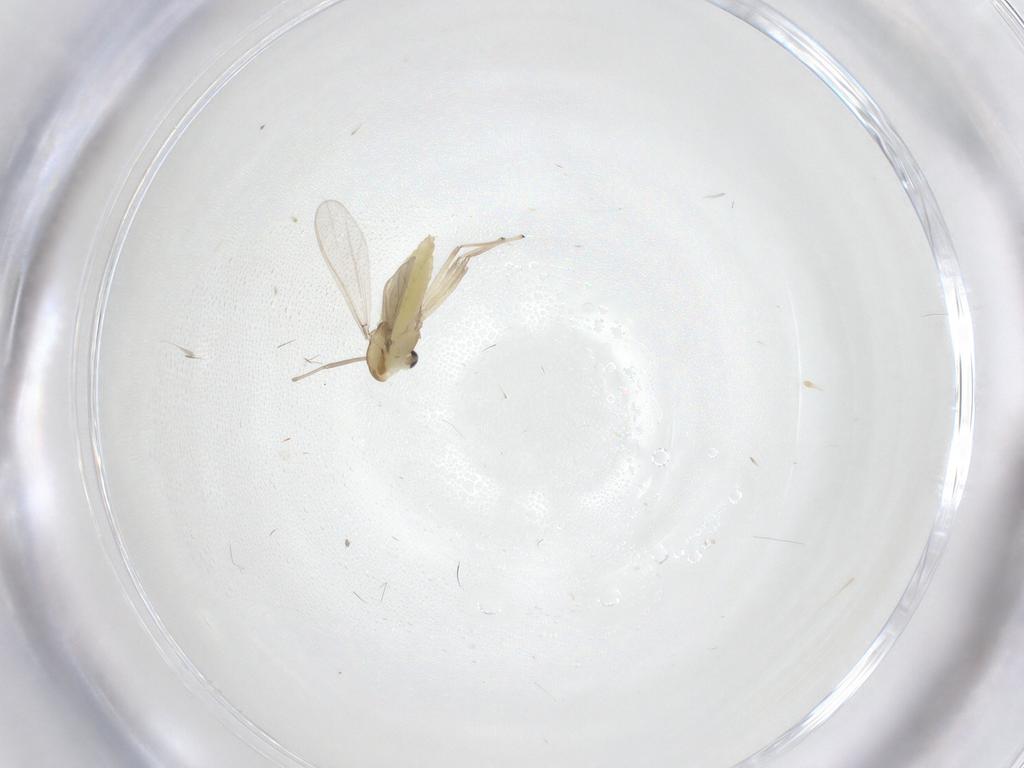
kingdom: Animalia
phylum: Arthropoda
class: Insecta
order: Diptera
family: Chironomidae
